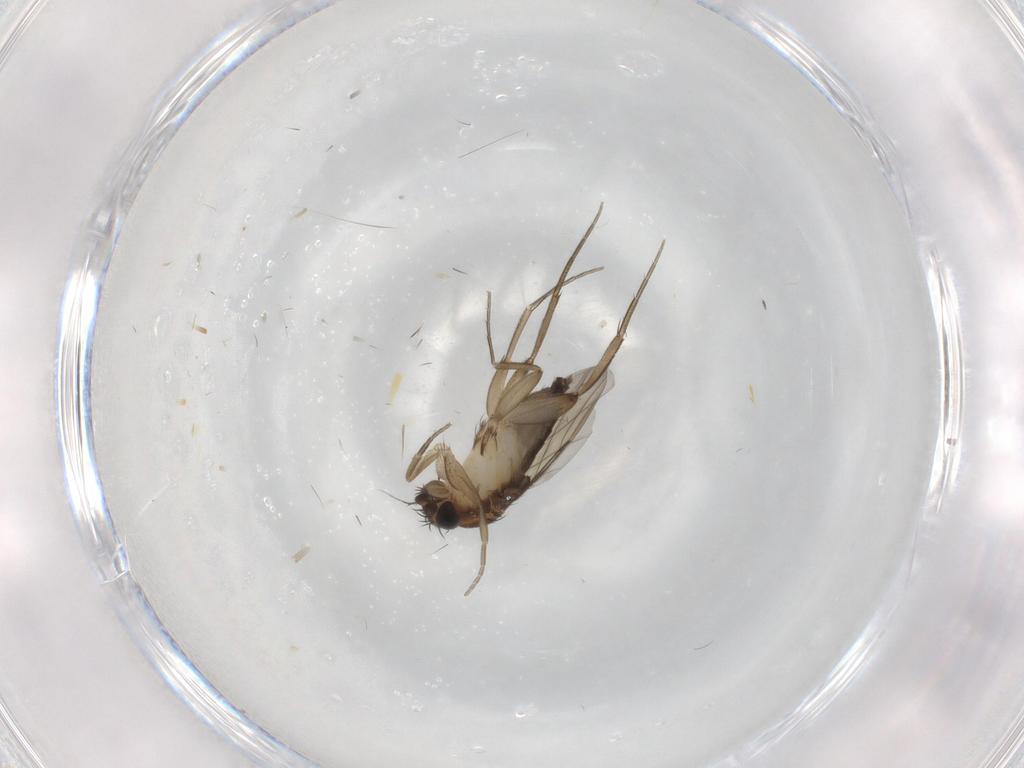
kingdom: Animalia
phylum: Arthropoda
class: Insecta
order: Diptera
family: Phoridae
